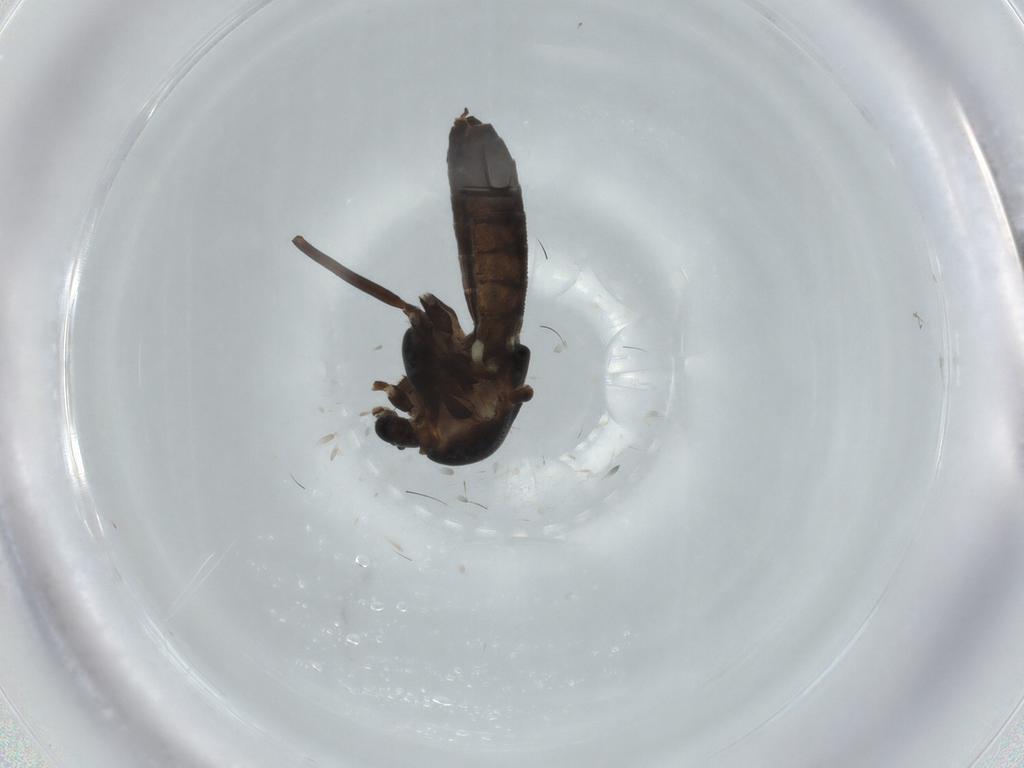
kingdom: Animalia
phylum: Arthropoda
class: Insecta
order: Diptera
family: Sciaridae
